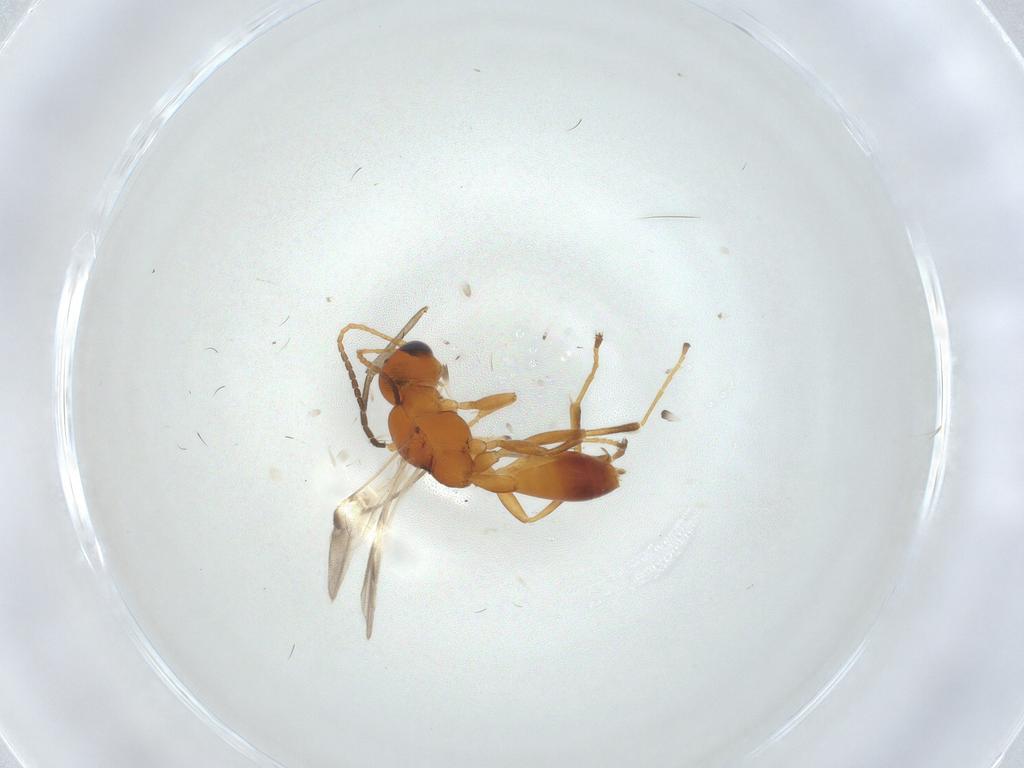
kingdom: Animalia
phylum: Arthropoda
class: Insecta
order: Hymenoptera
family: Braconidae
